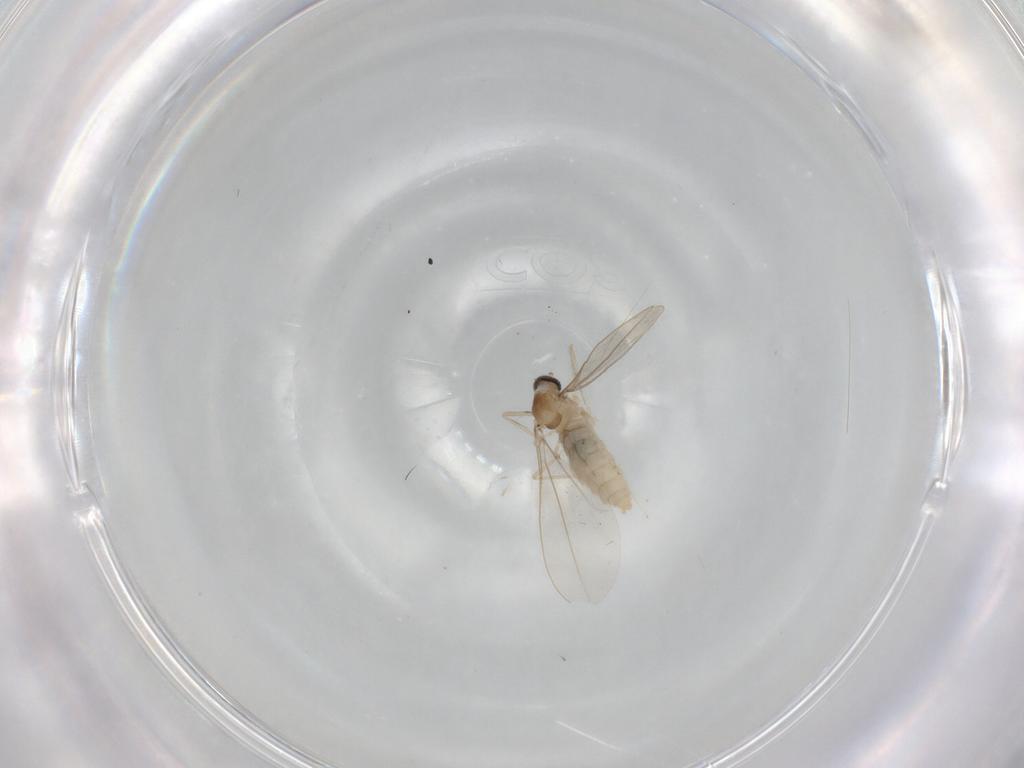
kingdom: Animalia
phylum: Arthropoda
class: Insecta
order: Diptera
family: Cecidomyiidae
